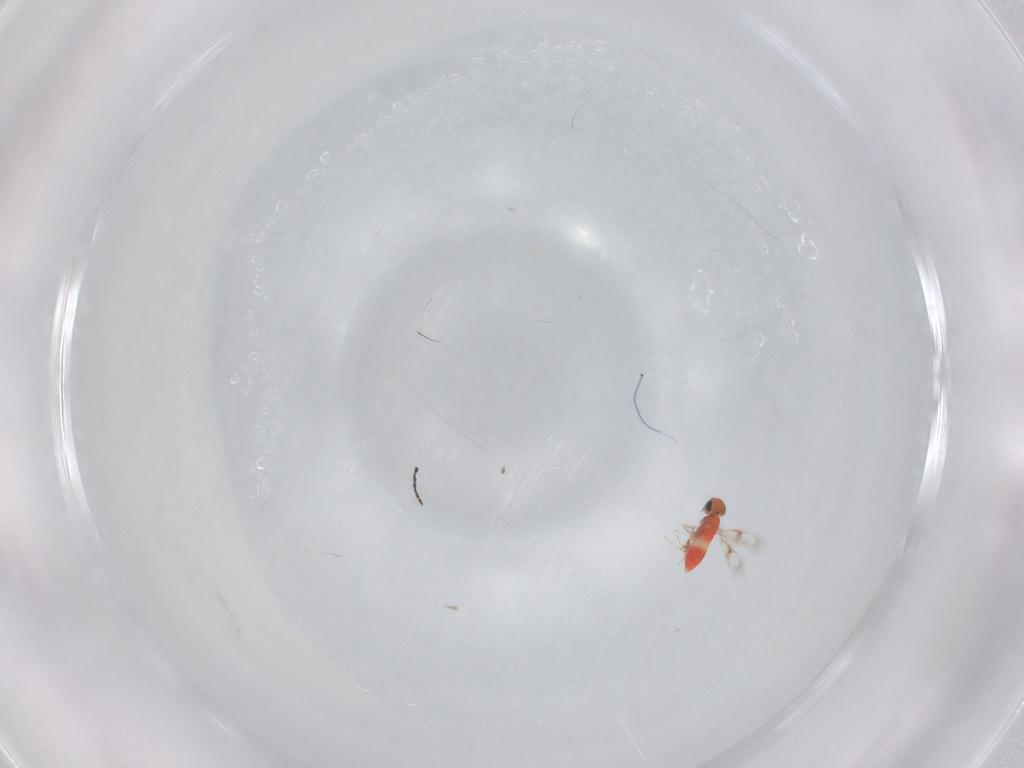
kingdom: Animalia
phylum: Arthropoda
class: Insecta
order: Hymenoptera
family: Trichogrammatidae
